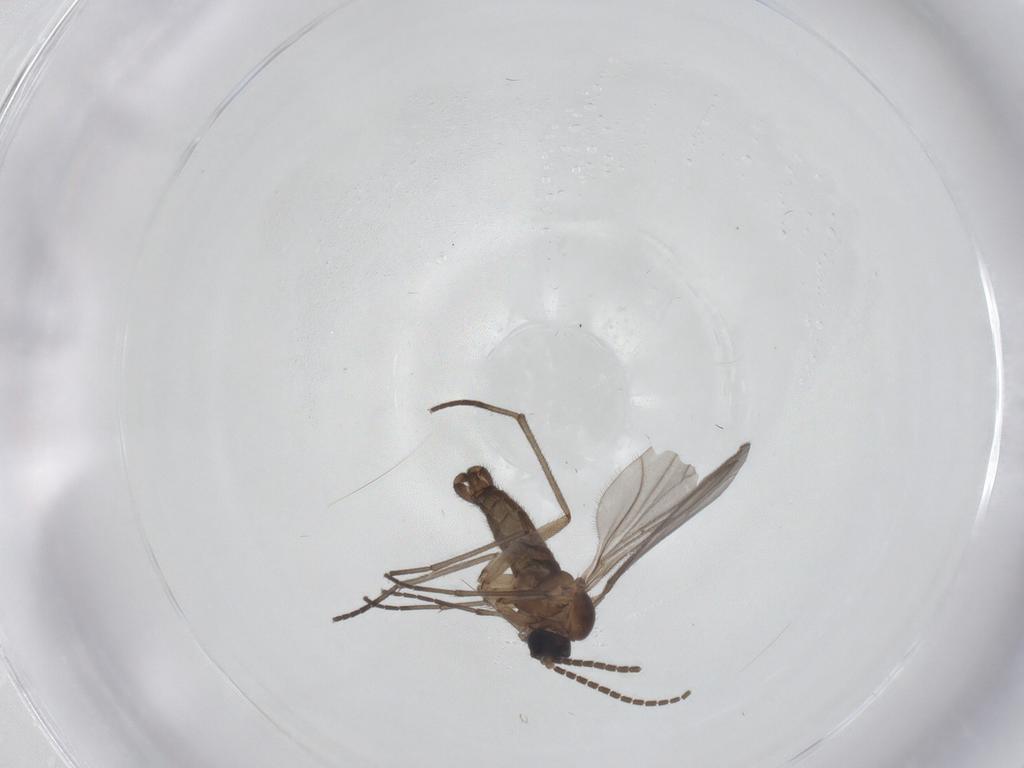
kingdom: Animalia
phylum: Arthropoda
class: Insecta
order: Diptera
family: Sciaridae
